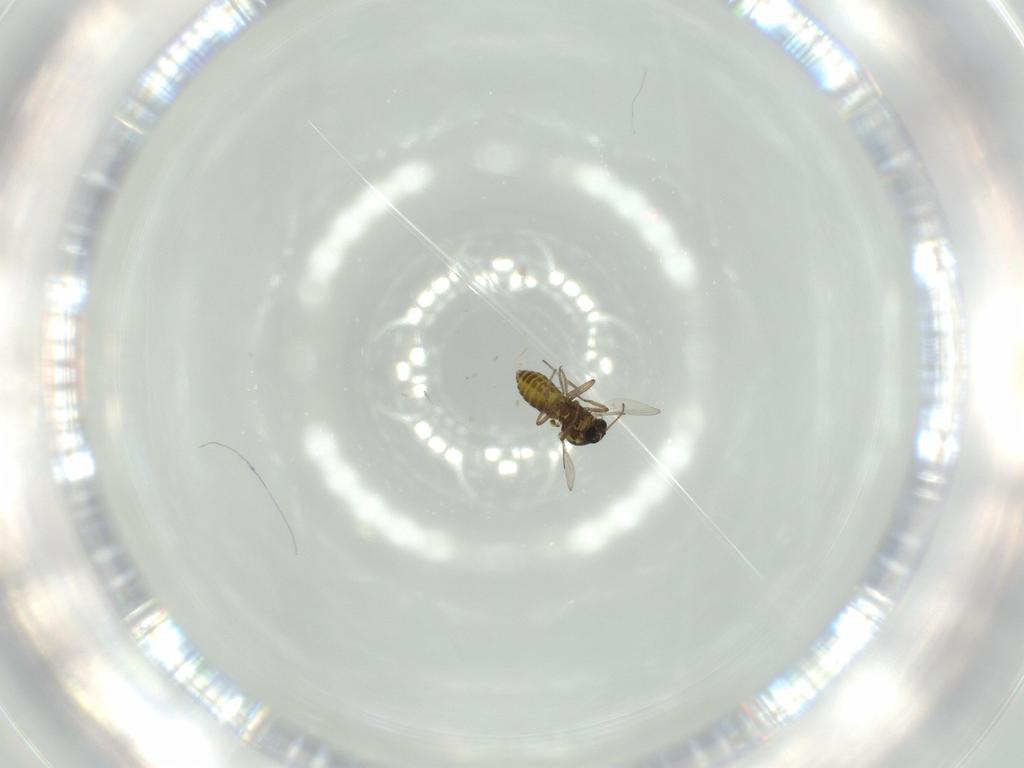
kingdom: Animalia
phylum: Arthropoda
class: Insecta
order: Diptera
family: Ceratopogonidae
